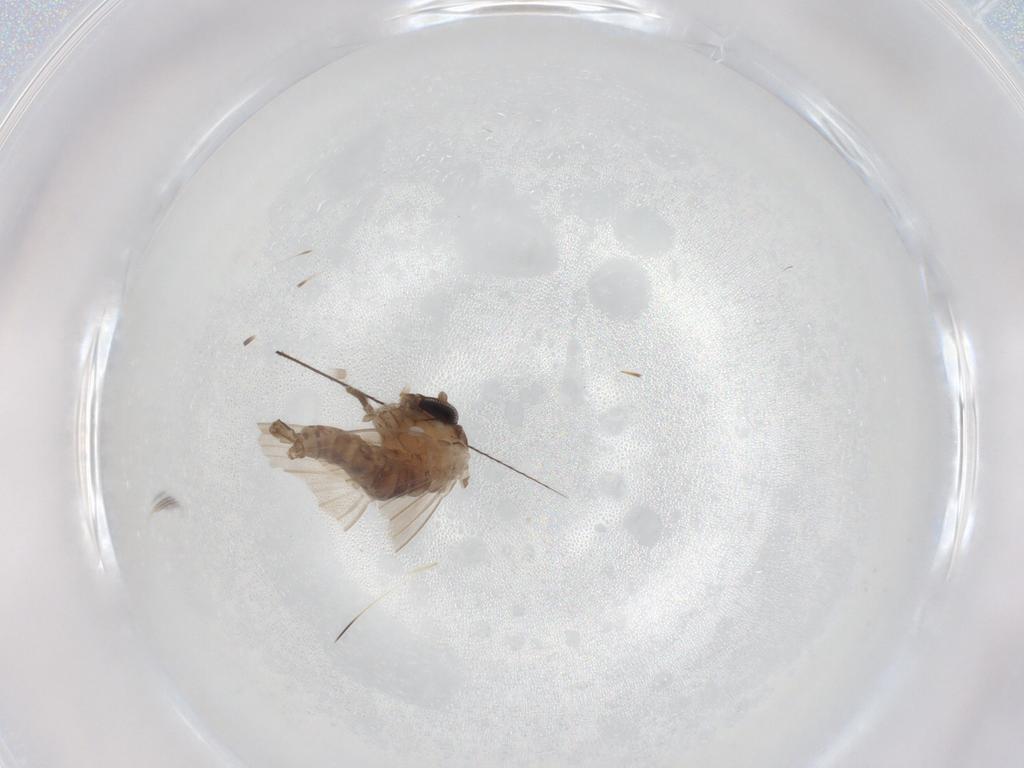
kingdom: Animalia
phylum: Arthropoda
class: Insecta
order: Diptera
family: Psychodidae
